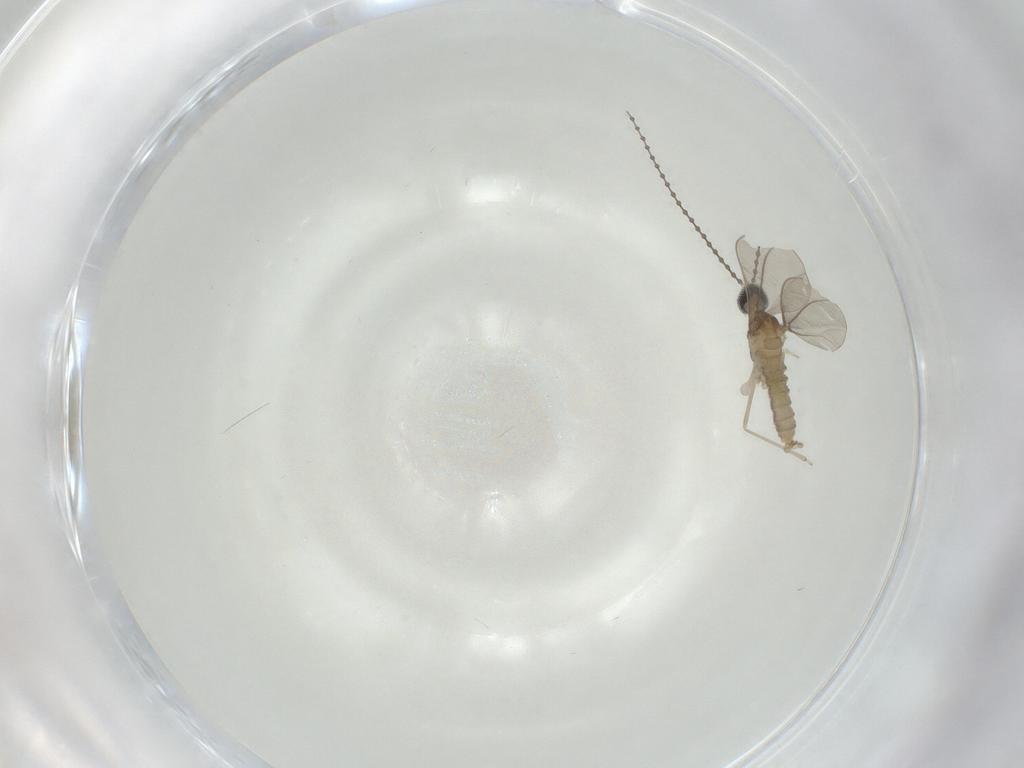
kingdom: Animalia
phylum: Arthropoda
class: Insecta
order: Diptera
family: Cecidomyiidae
